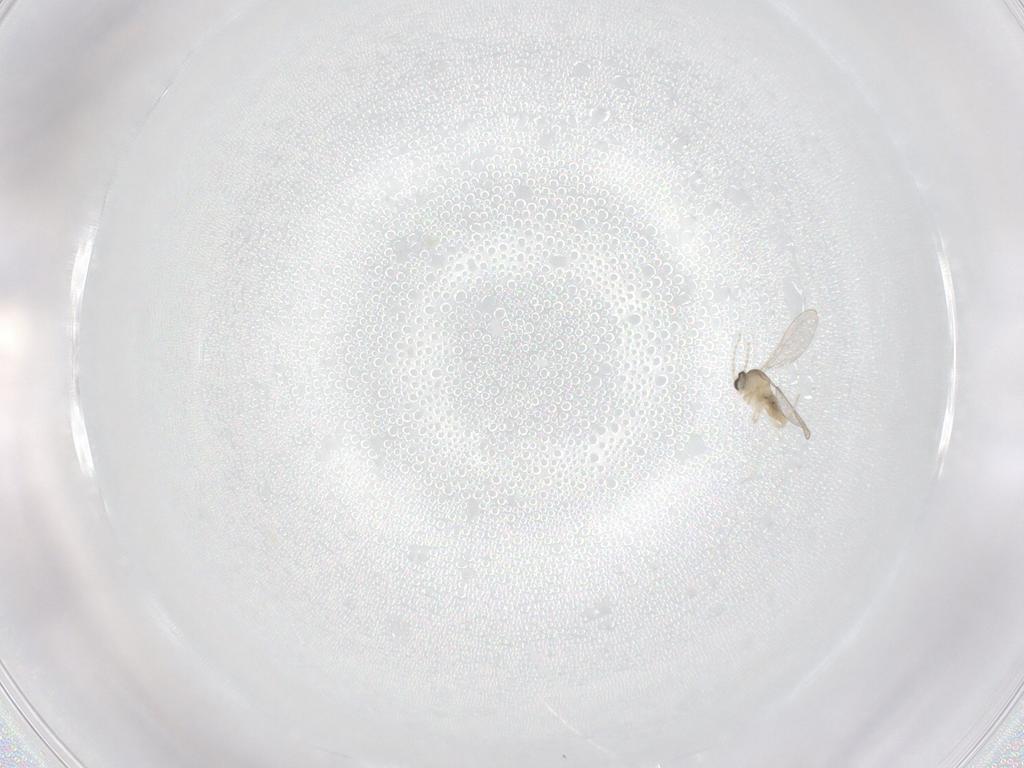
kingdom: Animalia
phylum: Arthropoda
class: Insecta
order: Diptera
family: Cecidomyiidae
